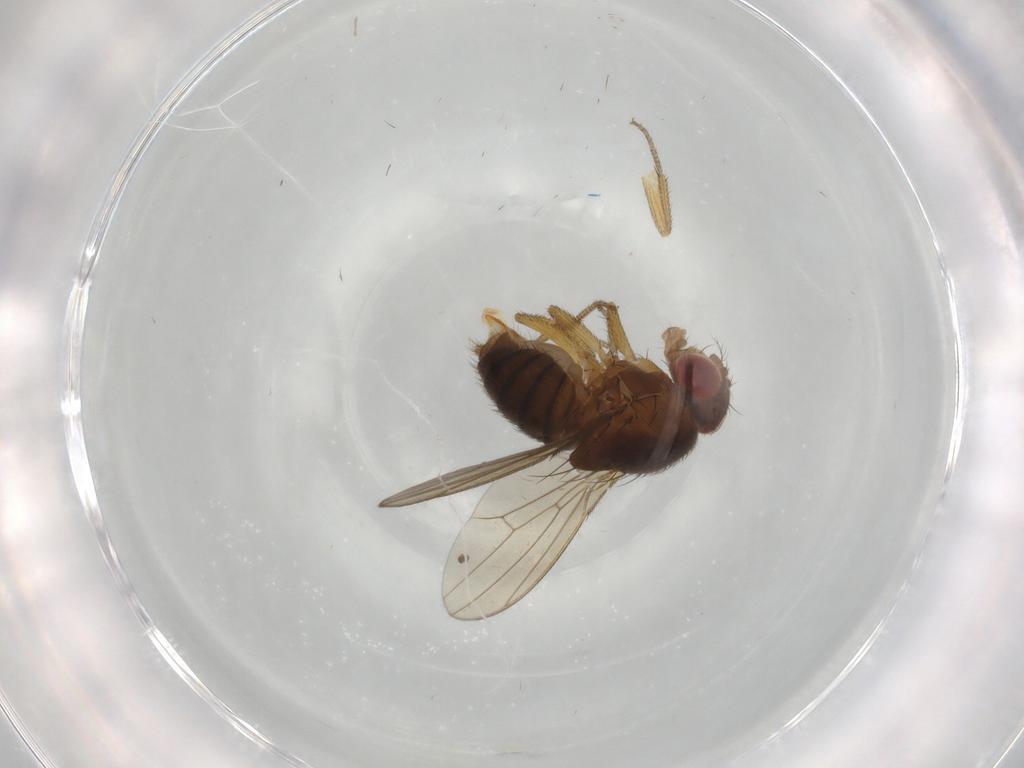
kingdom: Animalia
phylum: Arthropoda
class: Insecta
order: Diptera
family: Drosophilidae
